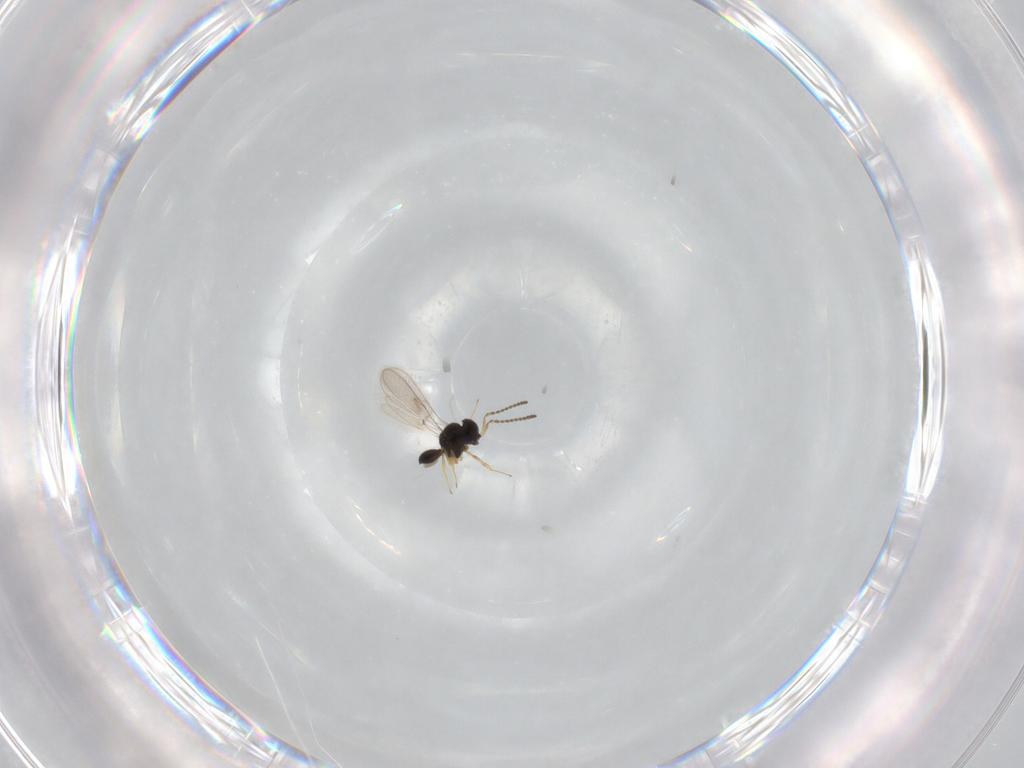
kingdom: Animalia
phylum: Arthropoda
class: Insecta
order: Hymenoptera
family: Scelionidae
